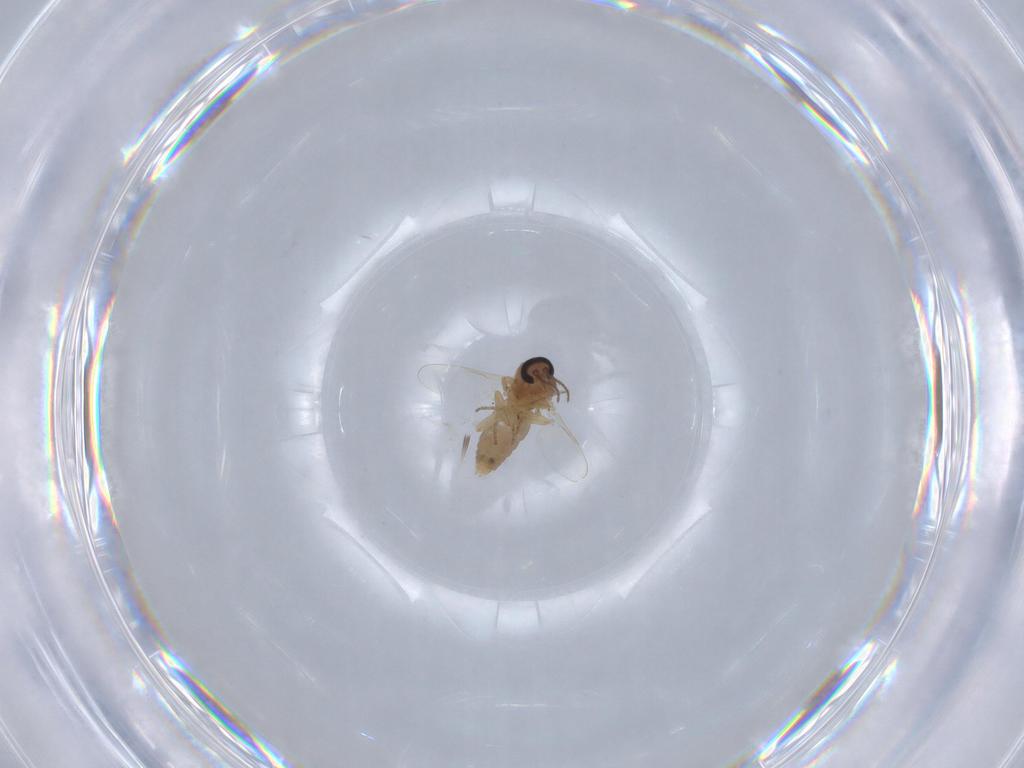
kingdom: Animalia
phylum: Arthropoda
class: Insecta
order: Diptera
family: Ceratopogonidae
